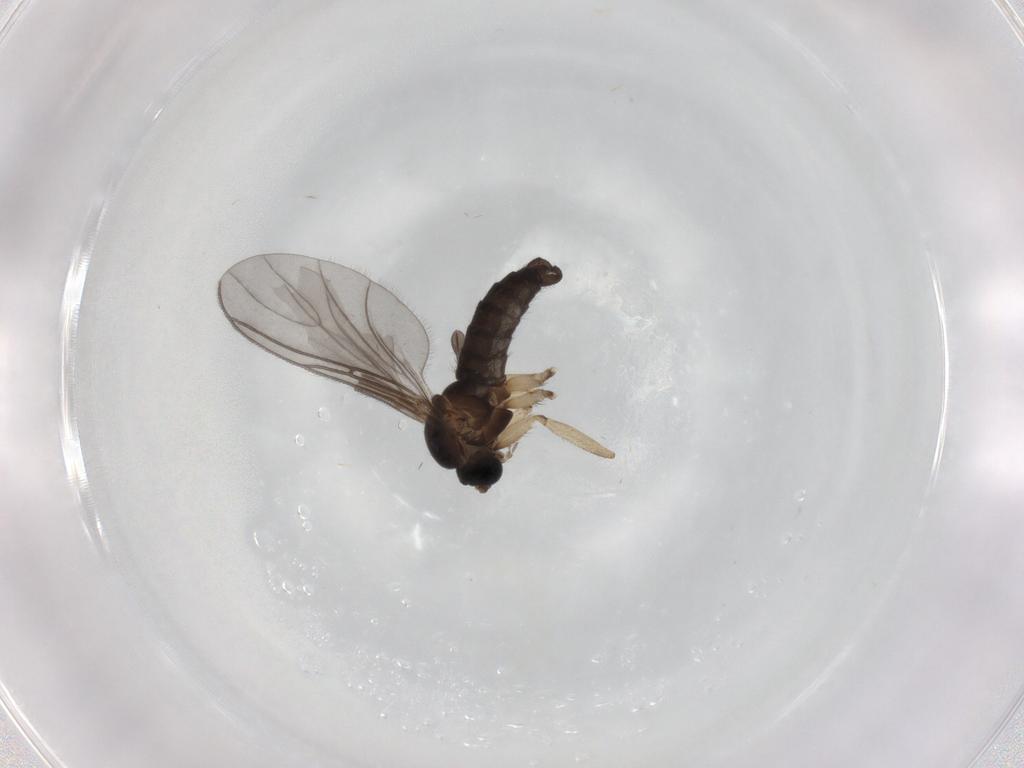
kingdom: Animalia
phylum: Arthropoda
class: Insecta
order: Diptera
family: Sciaridae
